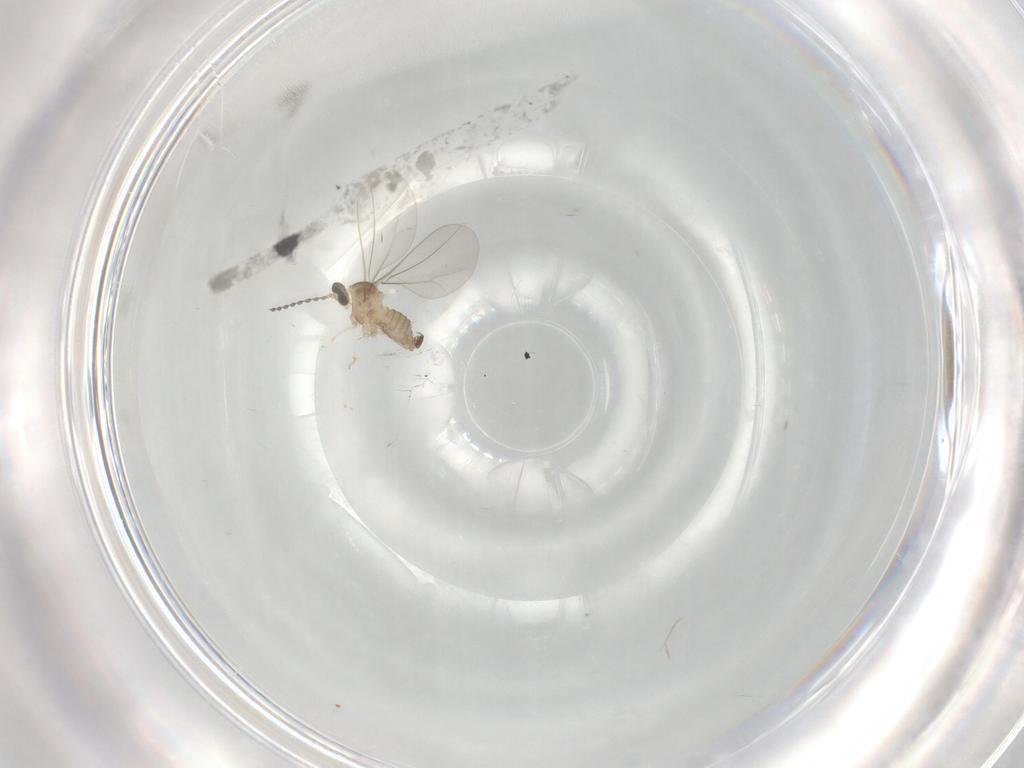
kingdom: Animalia
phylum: Arthropoda
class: Insecta
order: Diptera
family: Cecidomyiidae
